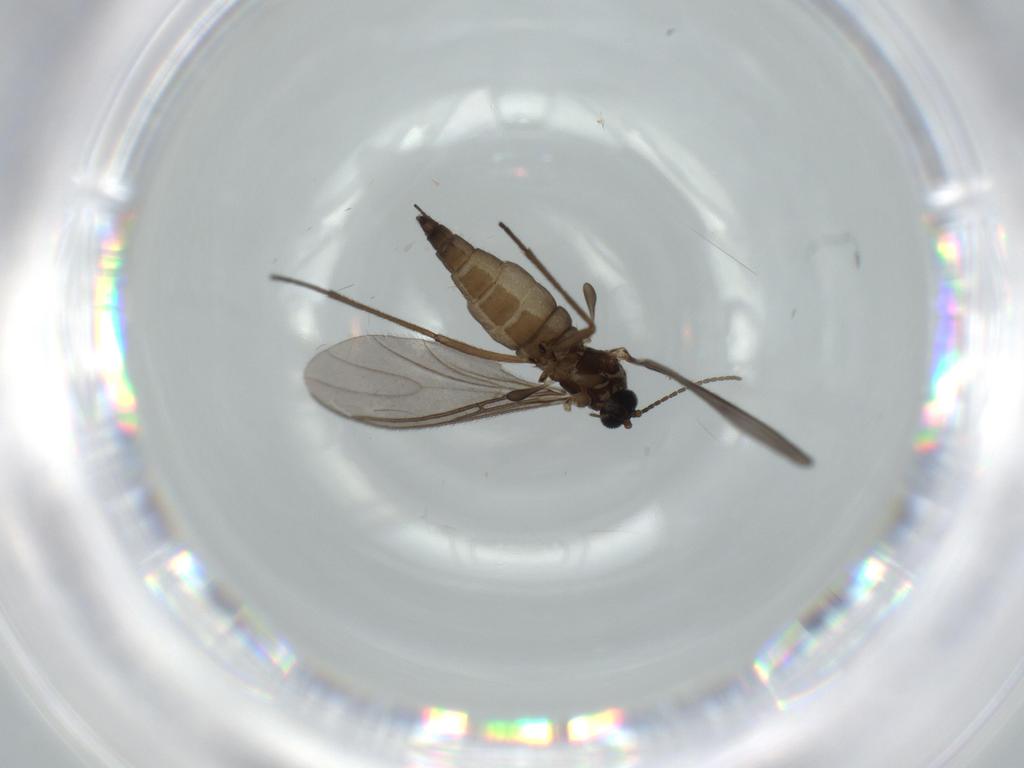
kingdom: Animalia
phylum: Arthropoda
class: Insecta
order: Diptera
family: Sciaridae
